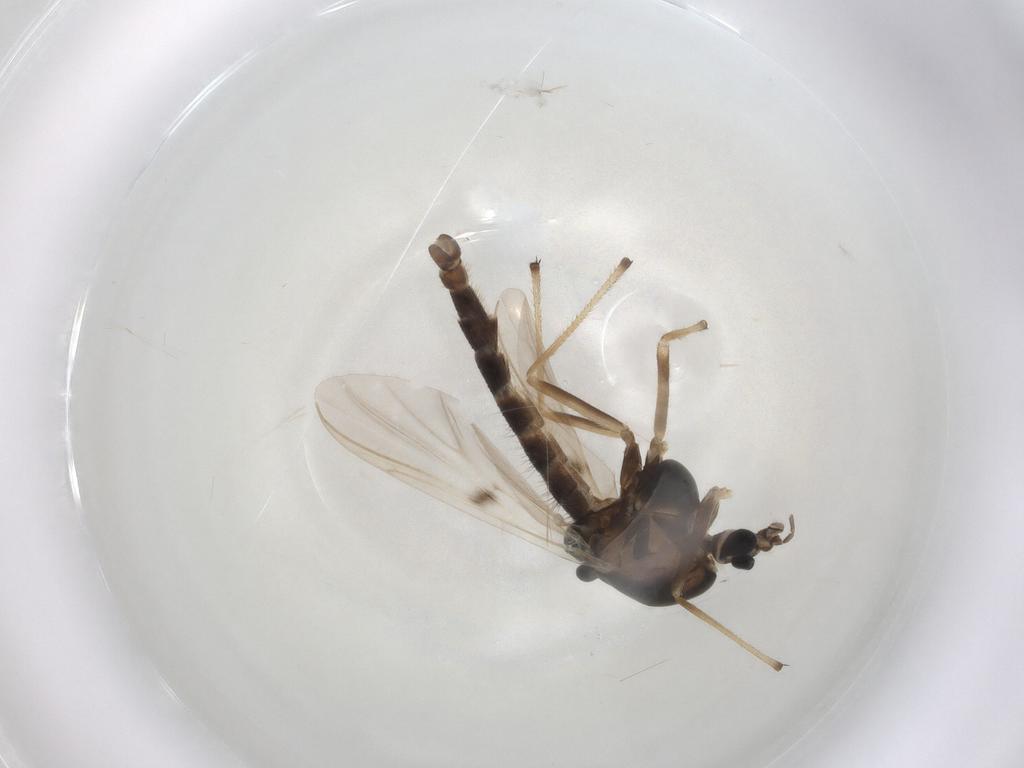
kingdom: Animalia
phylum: Arthropoda
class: Insecta
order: Diptera
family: Chironomidae
